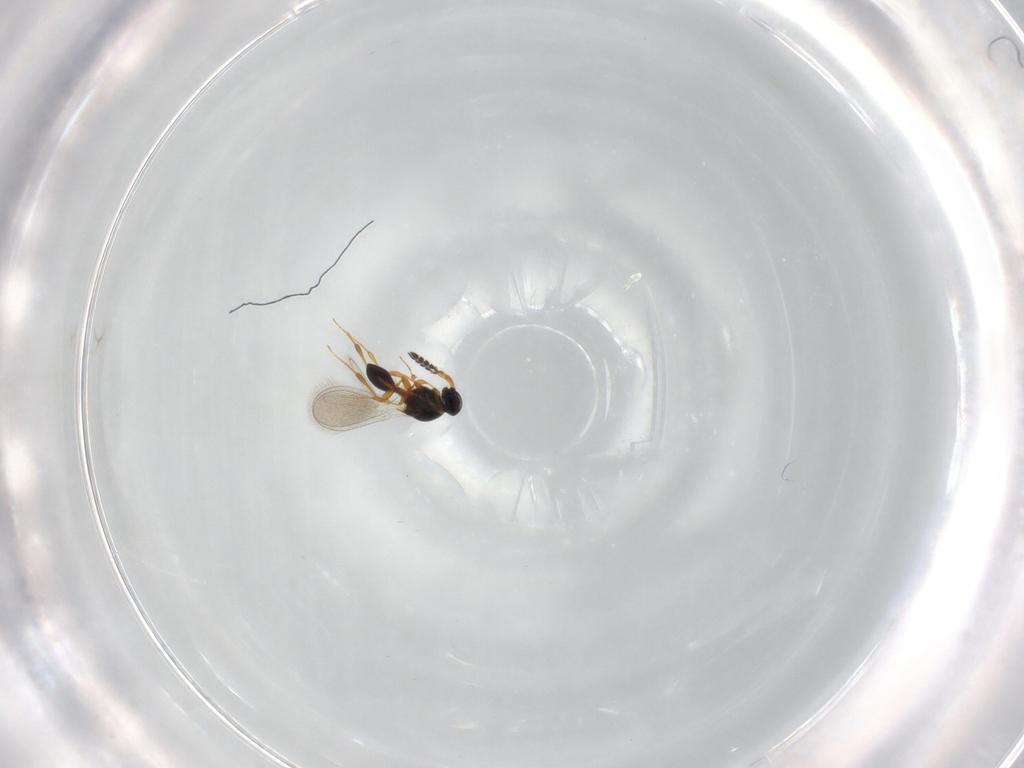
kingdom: Animalia
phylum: Arthropoda
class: Insecta
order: Hymenoptera
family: Platygastridae
